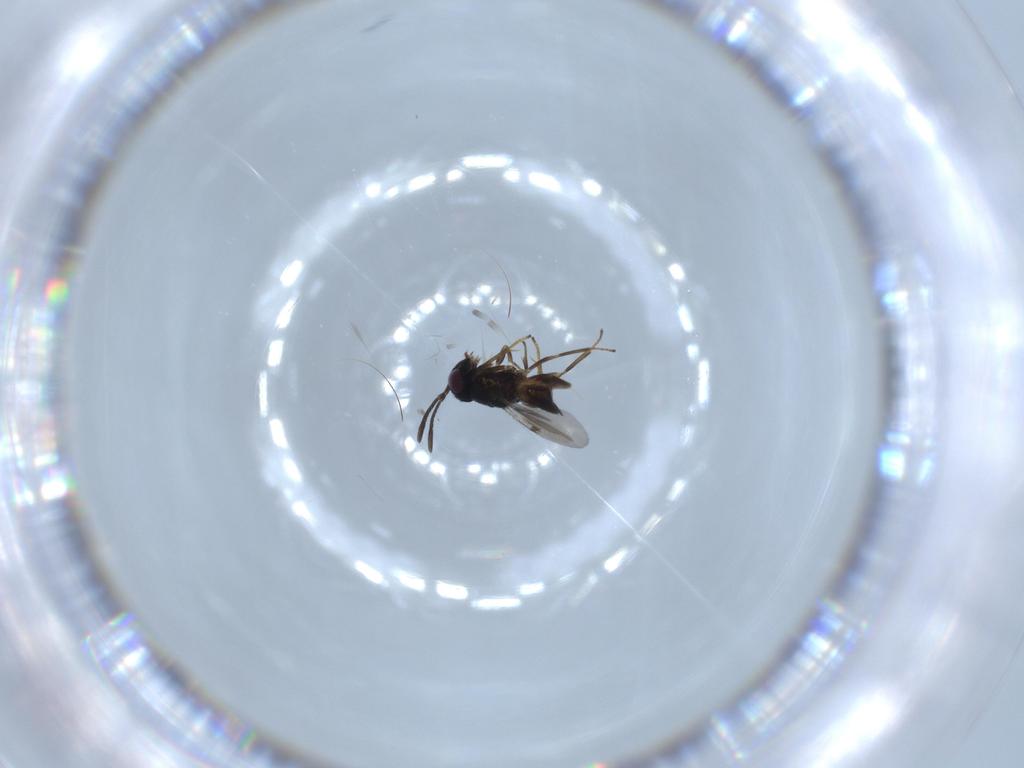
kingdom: Animalia
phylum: Arthropoda
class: Insecta
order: Hymenoptera
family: Encyrtidae
